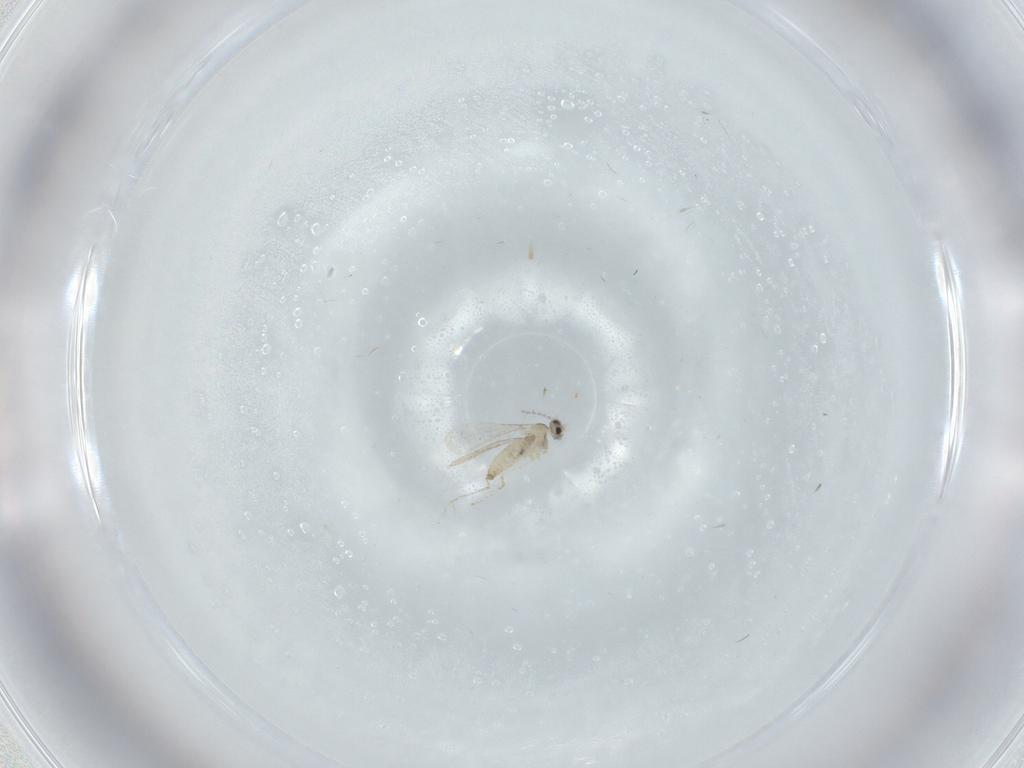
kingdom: Animalia
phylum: Arthropoda
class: Insecta
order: Diptera
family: Cecidomyiidae
